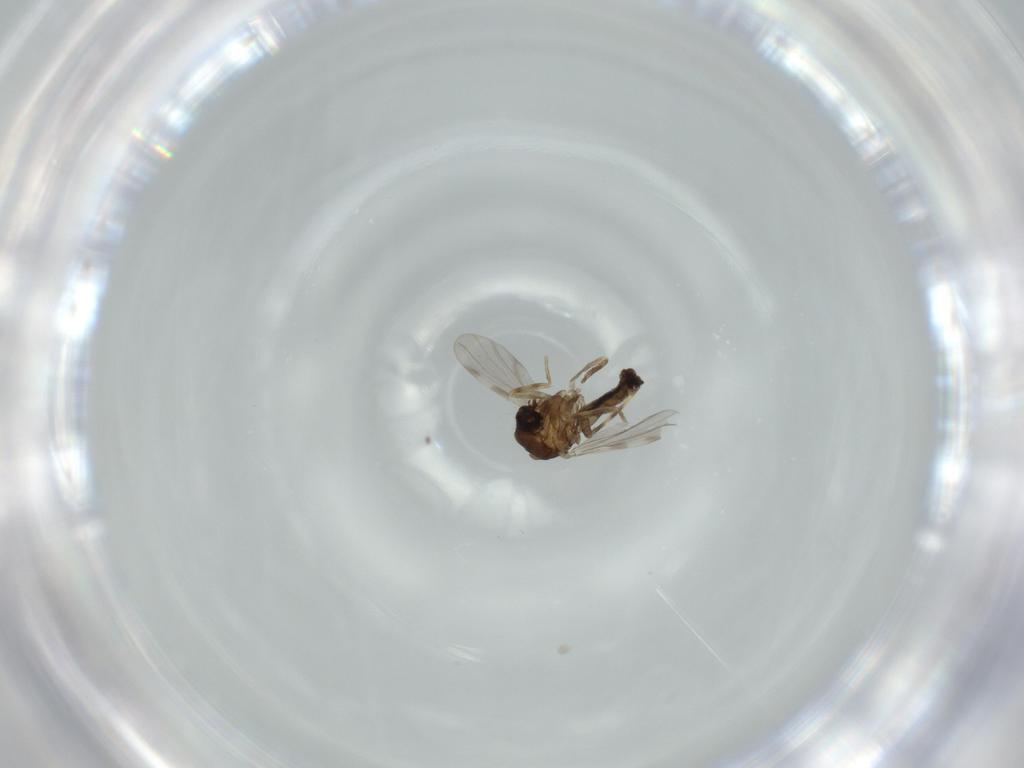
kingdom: Animalia
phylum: Arthropoda
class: Insecta
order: Diptera
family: Ceratopogonidae
